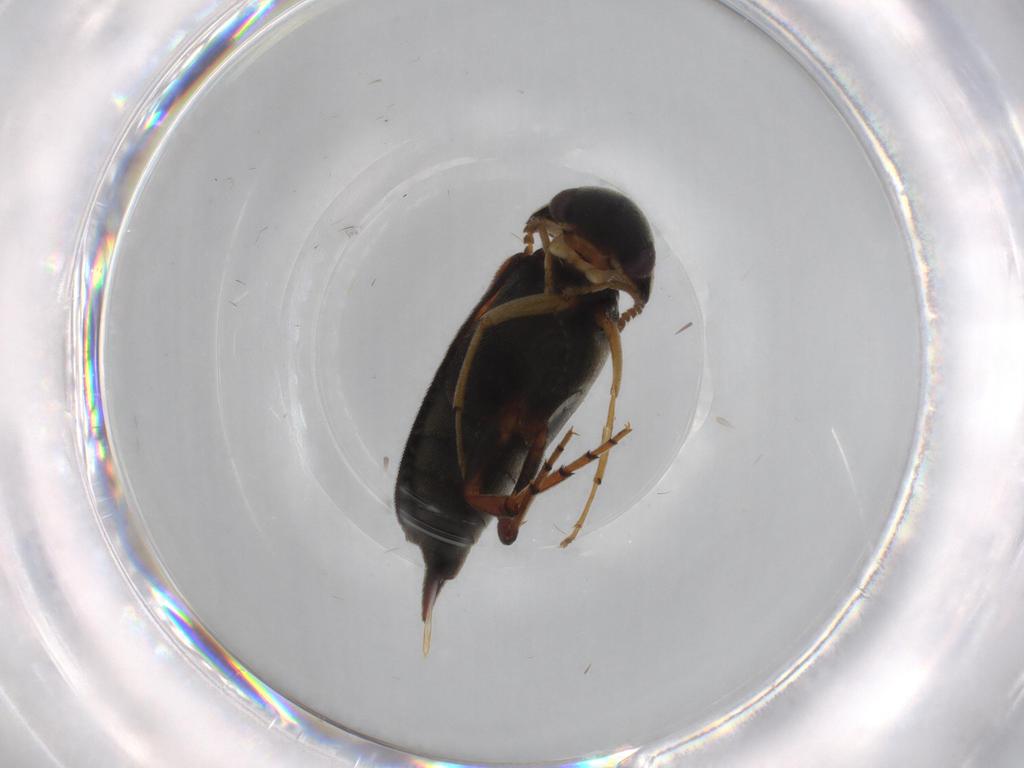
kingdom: Animalia
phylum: Arthropoda
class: Insecta
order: Coleoptera
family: Mordellidae
